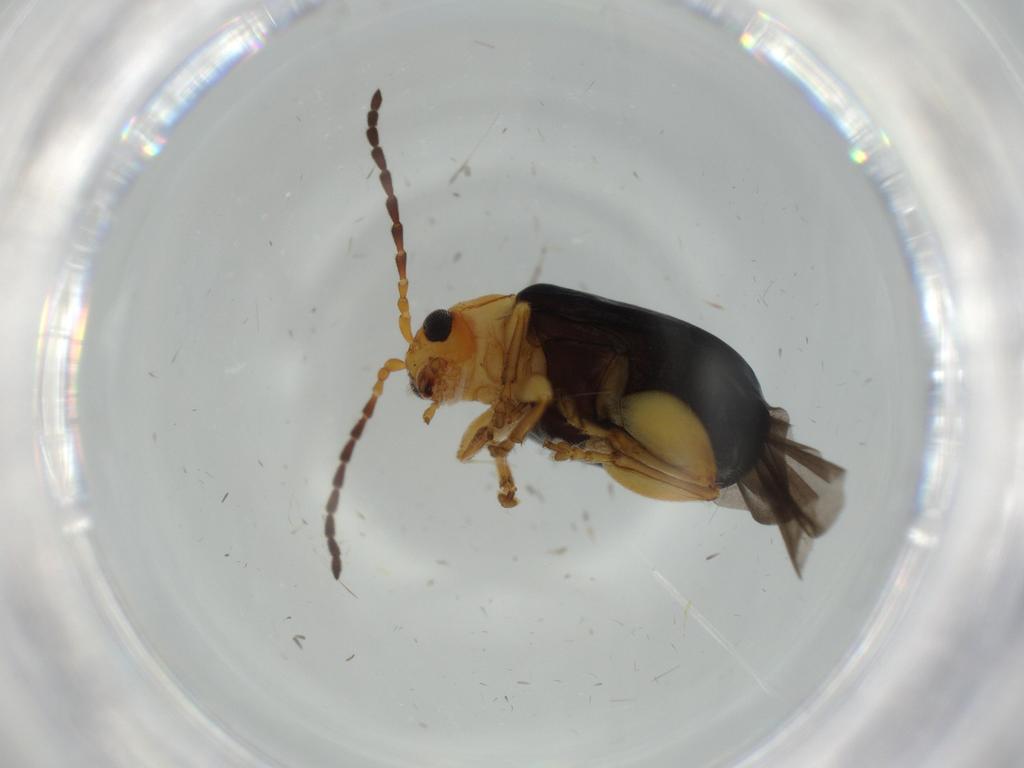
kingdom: Animalia
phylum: Arthropoda
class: Insecta
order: Coleoptera
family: Chrysomelidae
